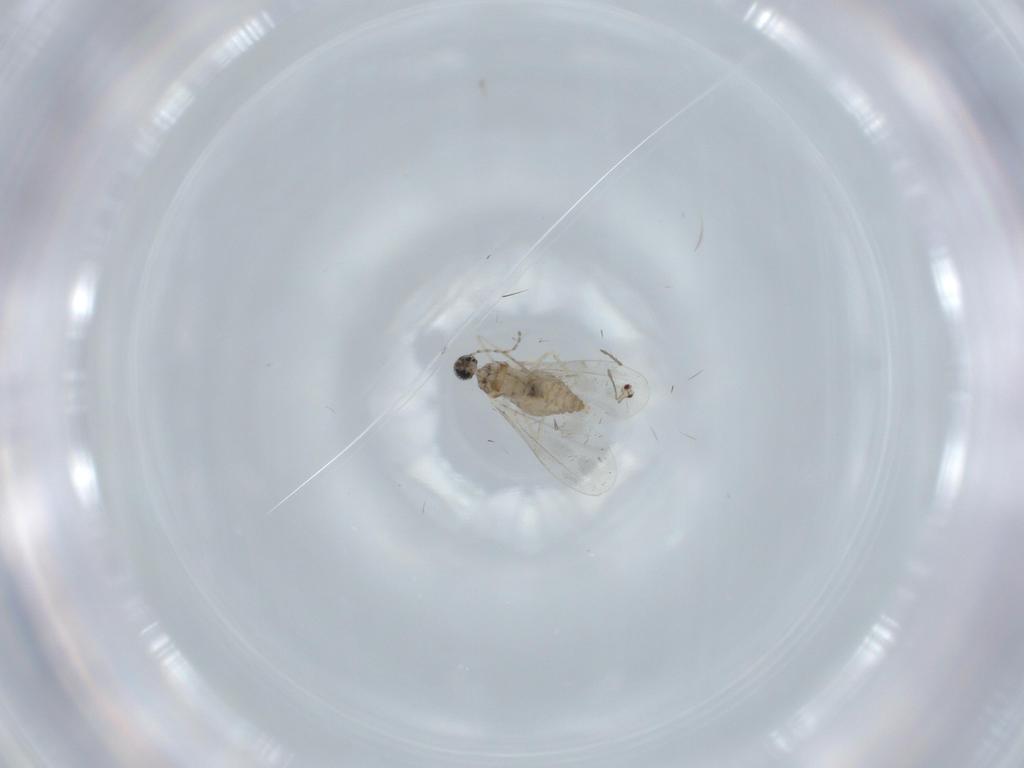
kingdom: Animalia
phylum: Arthropoda
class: Insecta
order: Diptera
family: Cecidomyiidae
